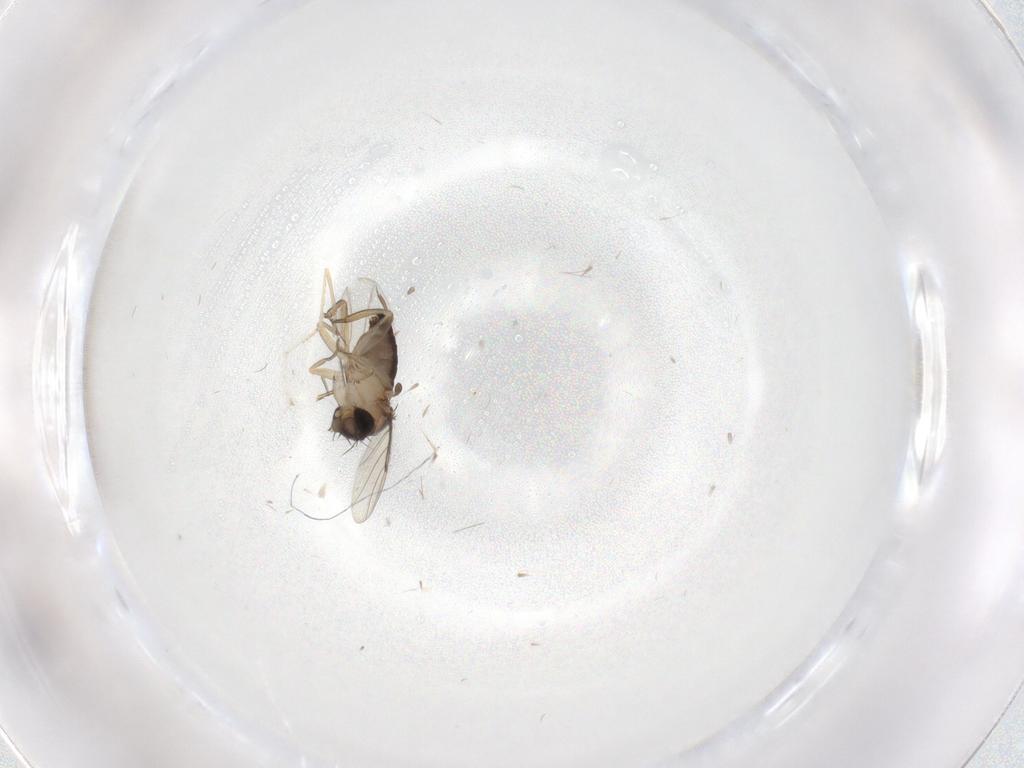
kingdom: Animalia
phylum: Arthropoda
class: Insecta
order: Diptera
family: Cecidomyiidae
